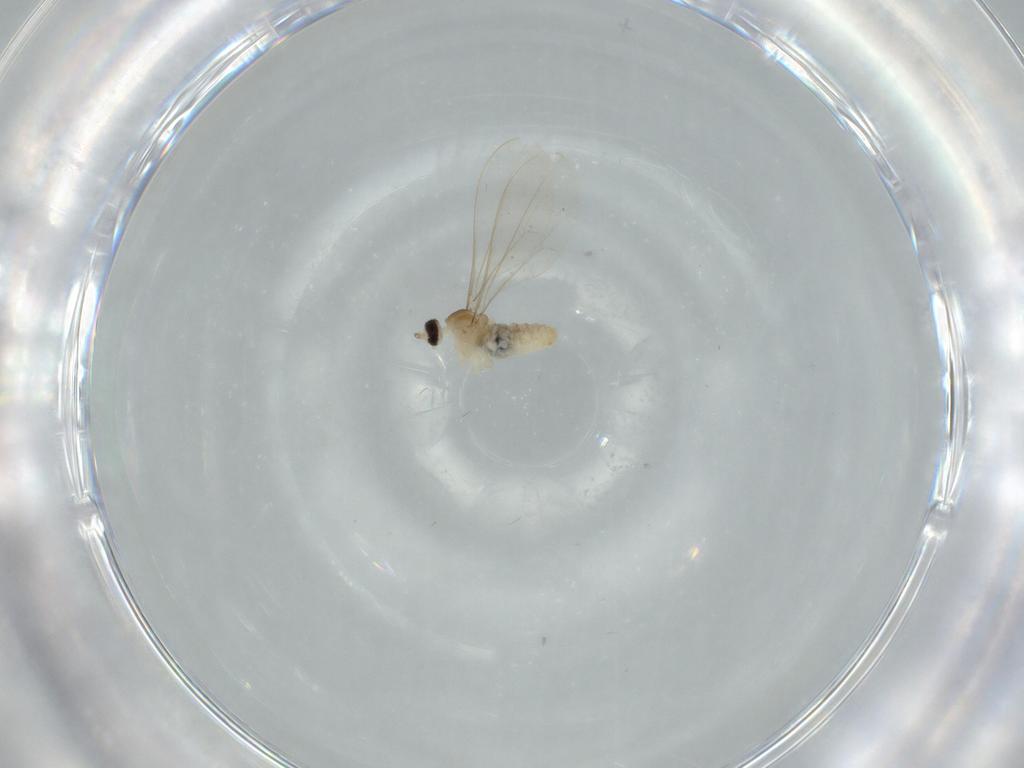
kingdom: Animalia
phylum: Arthropoda
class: Insecta
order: Diptera
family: Cecidomyiidae
